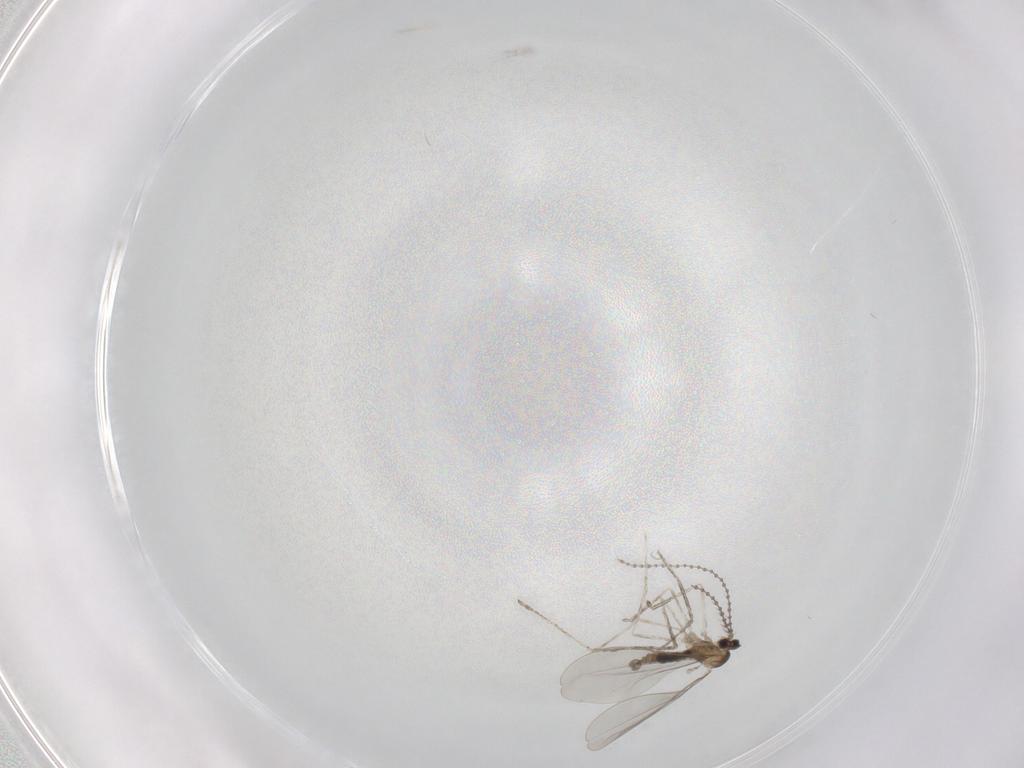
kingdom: Animalia
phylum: Arthropoda
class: Insecta
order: Diptera
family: Cecidomyiidae
